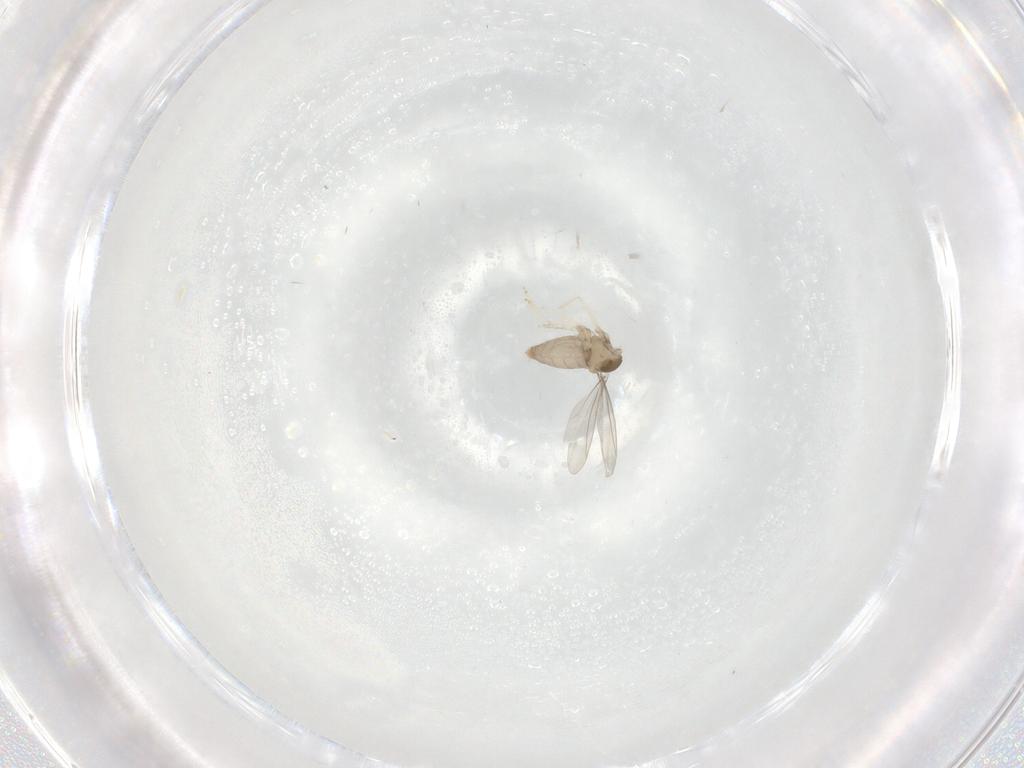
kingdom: Animalia
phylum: Arthropoda
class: Insecta
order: Diptera
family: Cecidomyiidae
